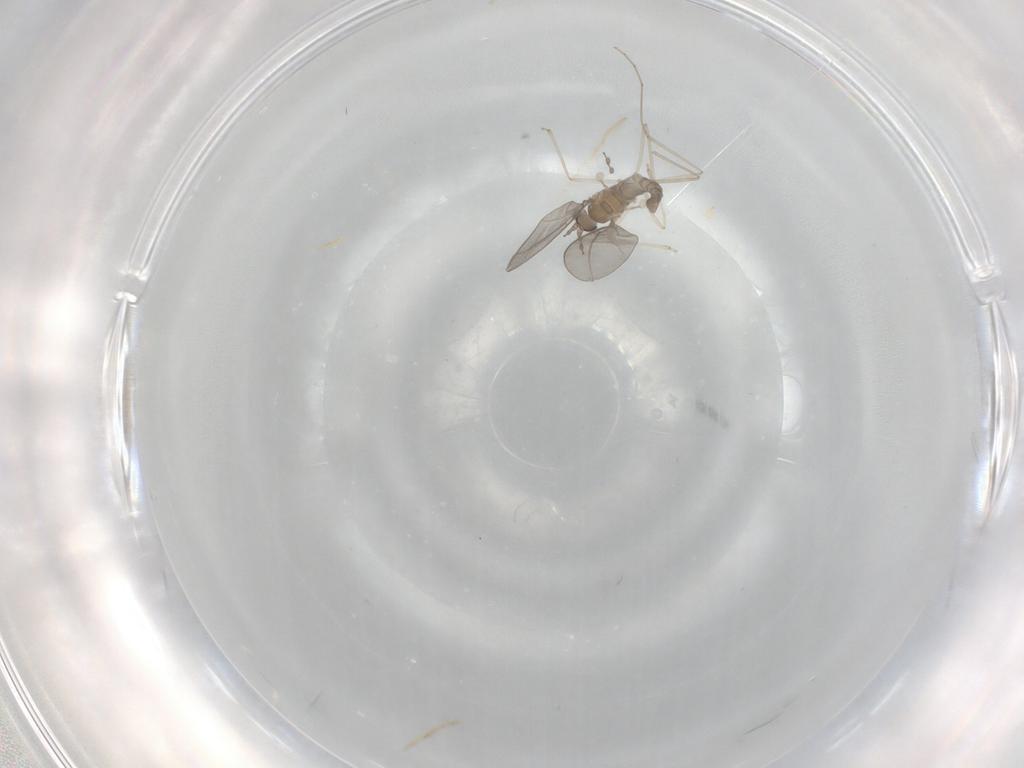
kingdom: Animalia
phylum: Arthropoda
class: Insecta
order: Diptera
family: Cecidomyiidae
